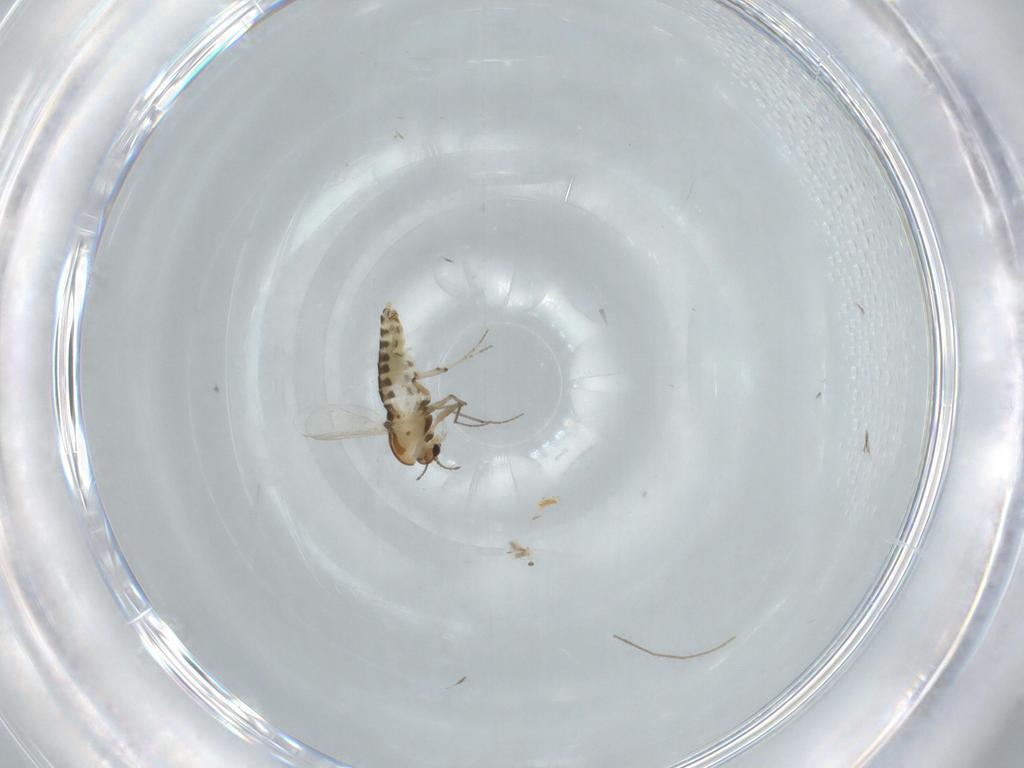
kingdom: Animalia
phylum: Arthropoda
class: Insecta
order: Diptera
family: Chironomidae
